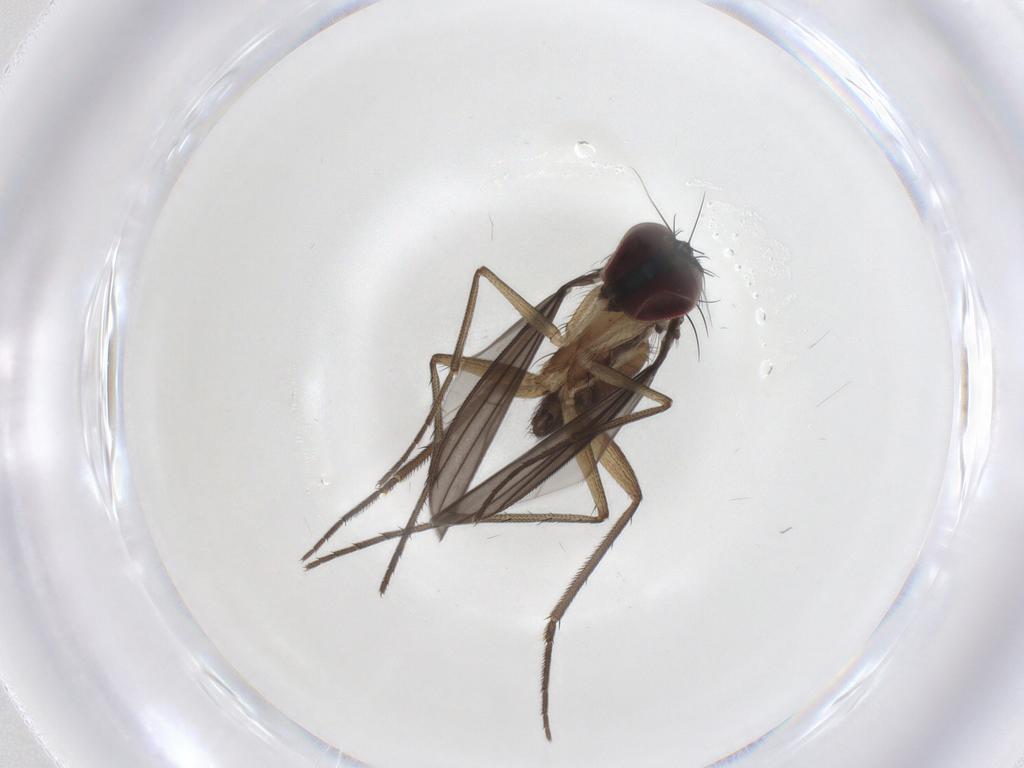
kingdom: Animalia
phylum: Arthropoda
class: Insecta
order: Diptera
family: Dolichopodidae
